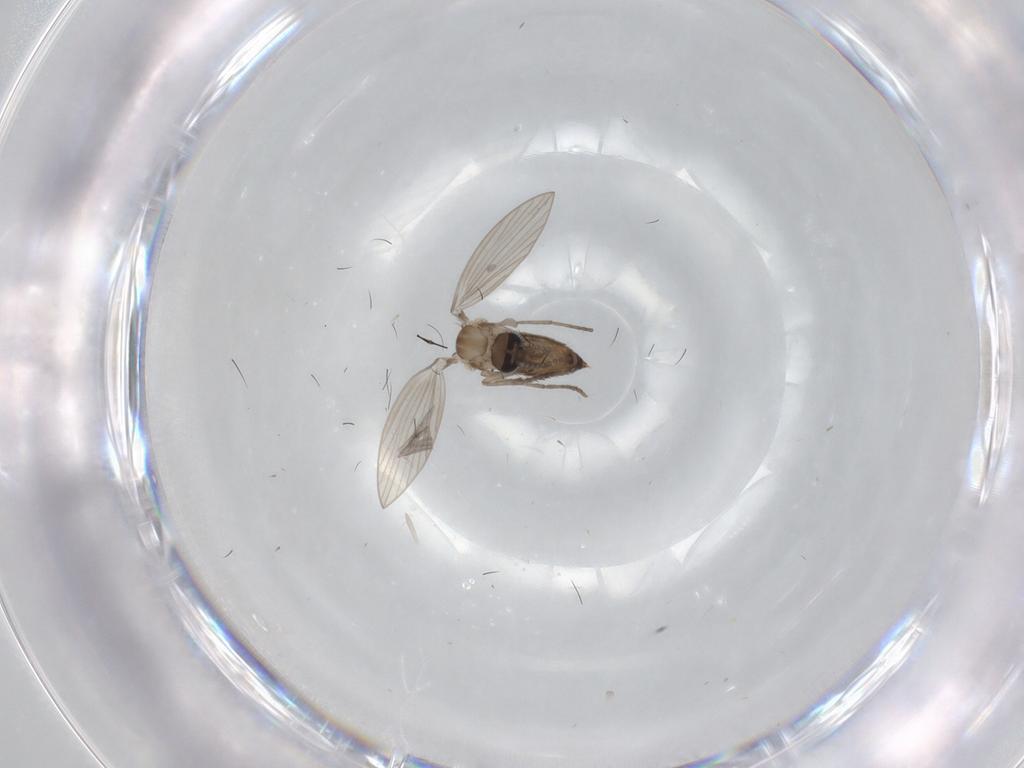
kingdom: Animalia
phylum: Arthropoda
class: Insecta
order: Diptera
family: Psychodidae
